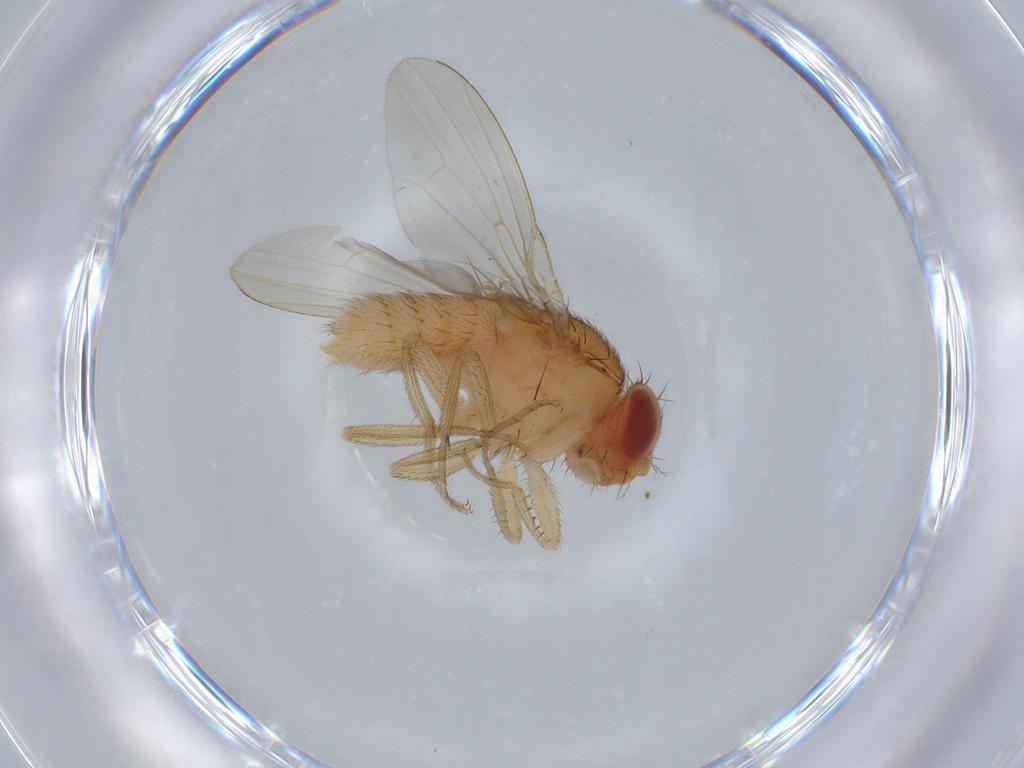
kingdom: Animalia
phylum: Arthropoda
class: Insecta
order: Diptera
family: Drosophilidae
